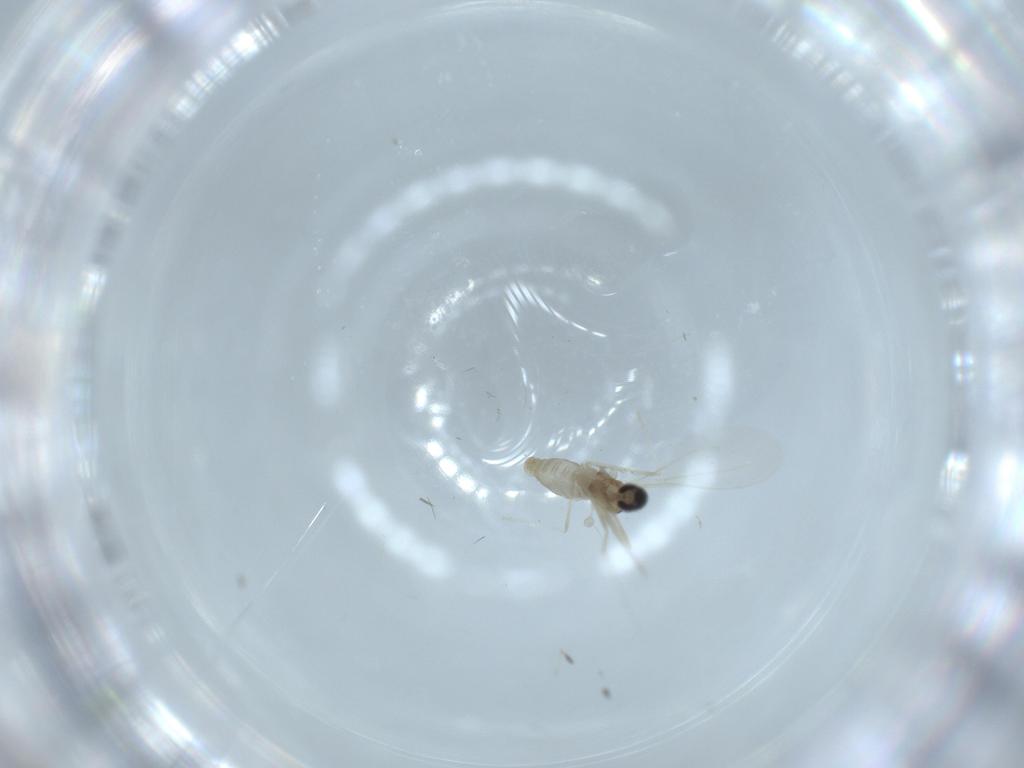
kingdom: Animalia
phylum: Arthropoda
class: Insecta
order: Diptera
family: Cecidomyiidae
